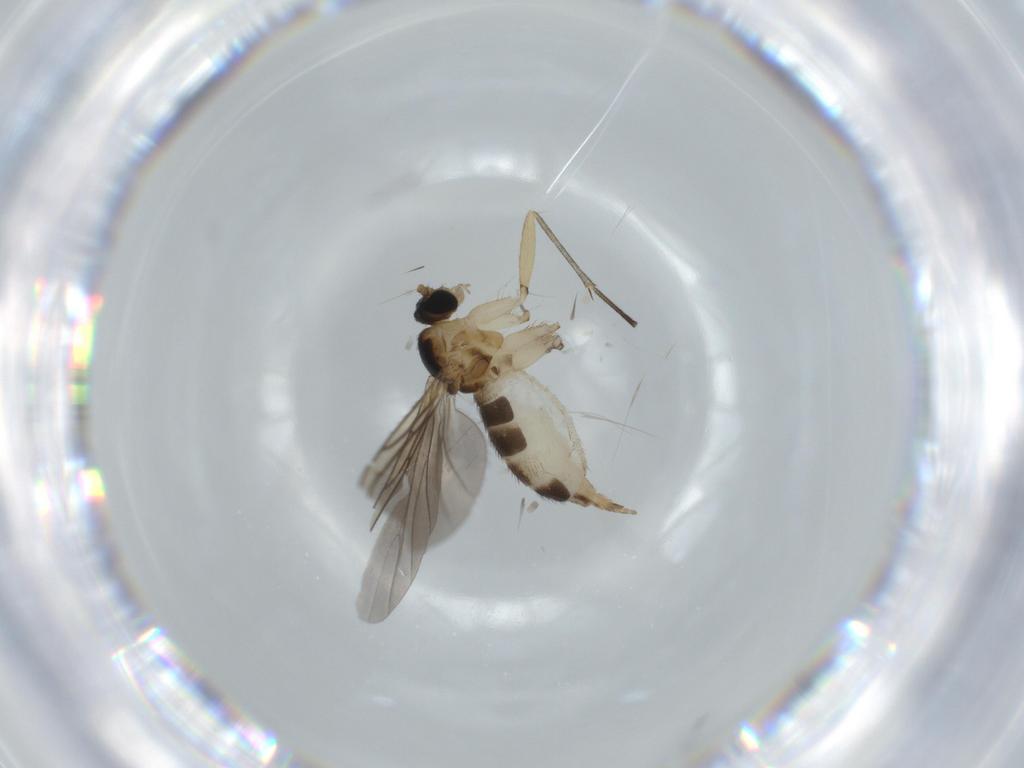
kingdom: Animalia
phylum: Arthropoda
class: Insecta
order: Diptera
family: Sciaridae
